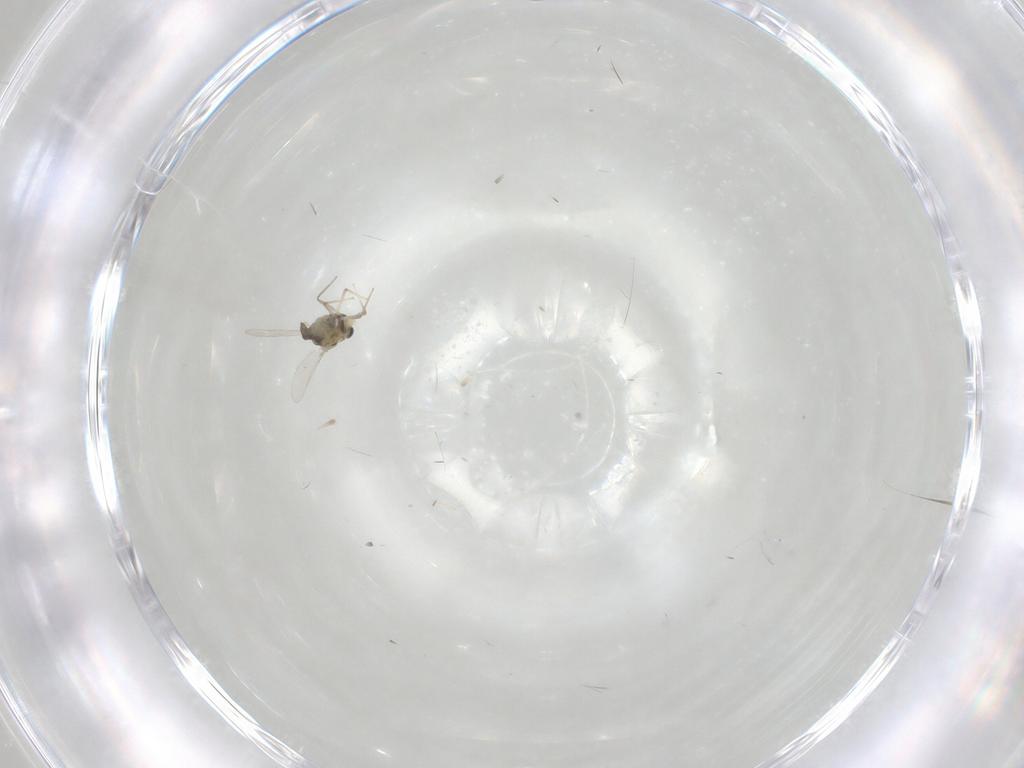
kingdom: Animalia
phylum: Arthropoda
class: Insecta
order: Diptera
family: Chironomidae
